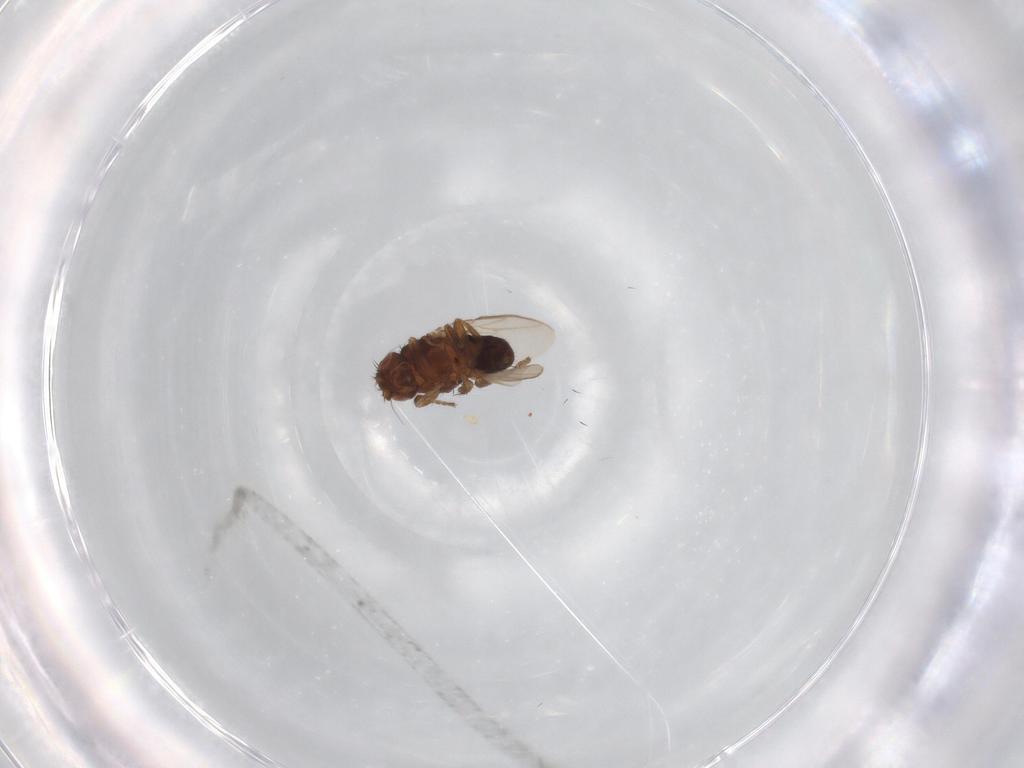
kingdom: Animalia
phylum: Arthropoda
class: Insecta
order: Diptera
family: Sphaeroceridae
